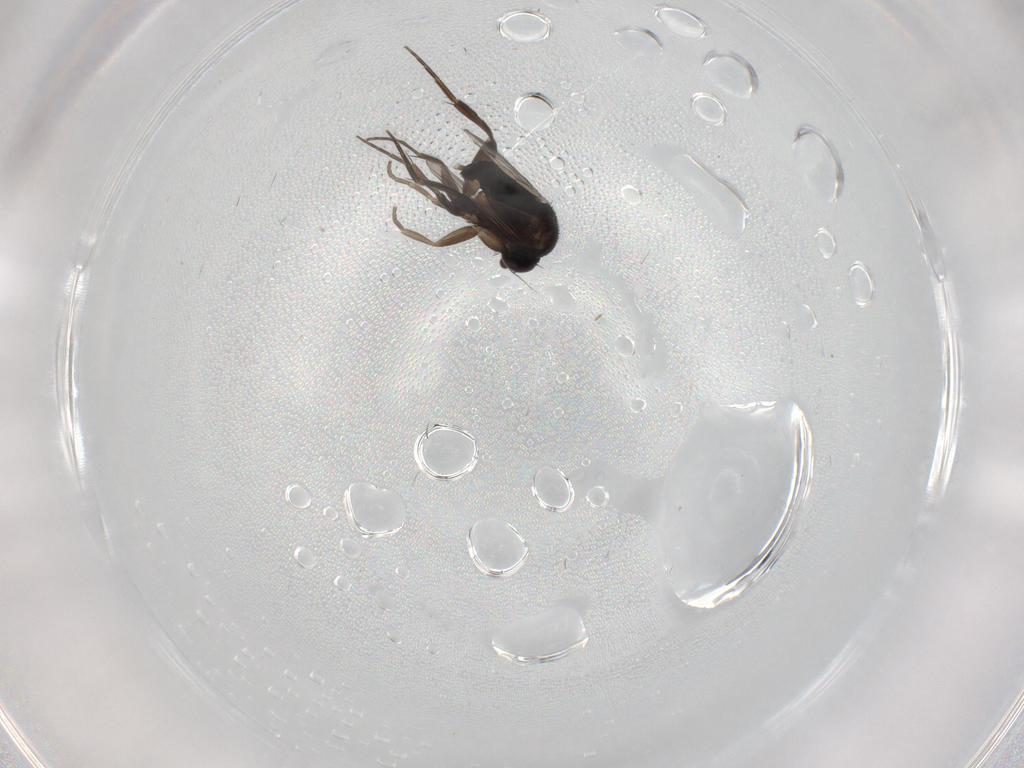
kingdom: Animalia
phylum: Arthropoda
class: Insecta
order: Diptera
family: Phoridae
